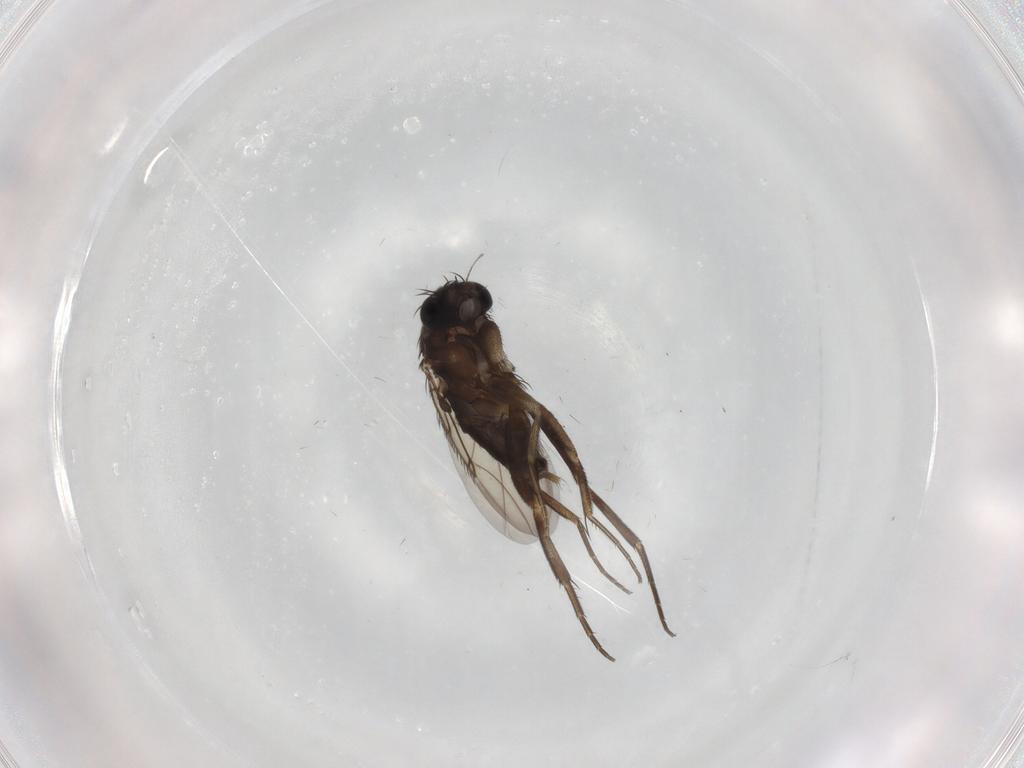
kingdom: Animalia
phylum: Arthropoda
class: Insecta
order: Diptera
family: Phoridae
